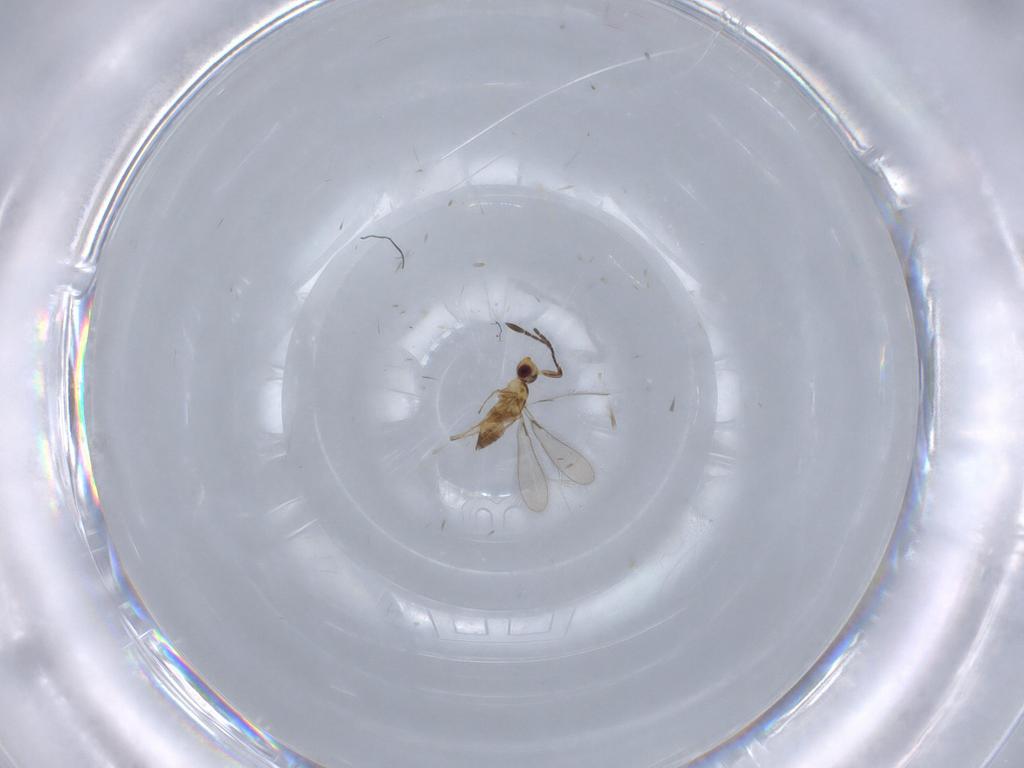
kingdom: Animalia
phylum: Arthropoda
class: Insecta
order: Hymenoptera
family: Mymaridae
